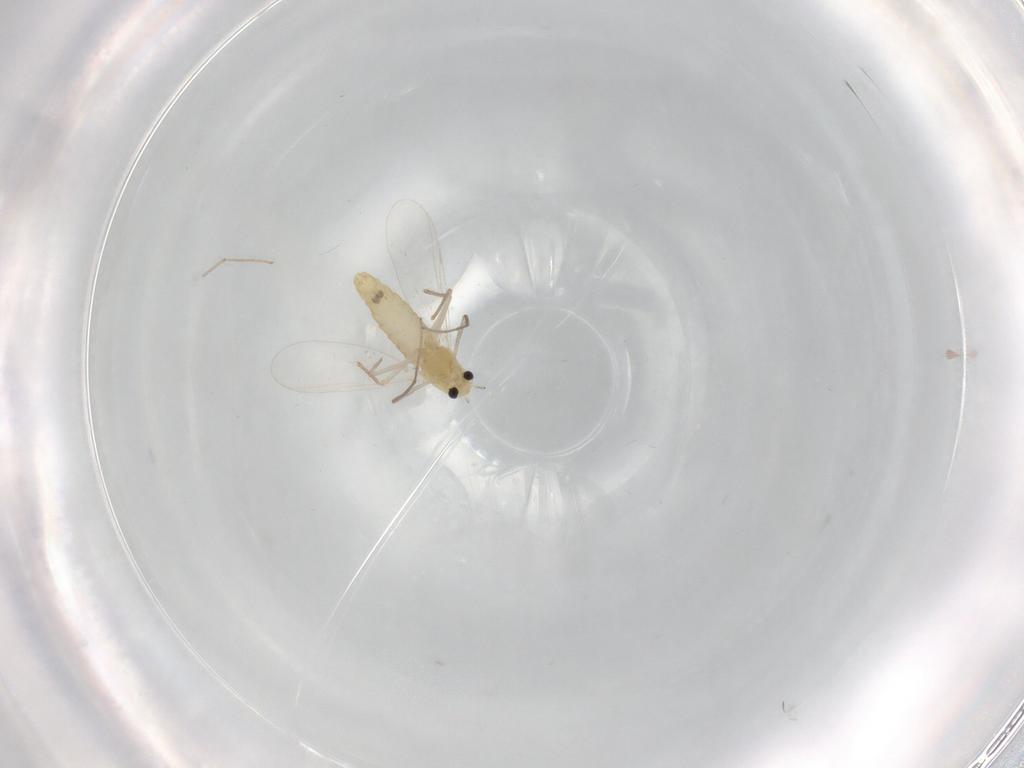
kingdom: Animalia
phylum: Arthropoda
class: Insecta
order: Diptera
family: Chironomidae
